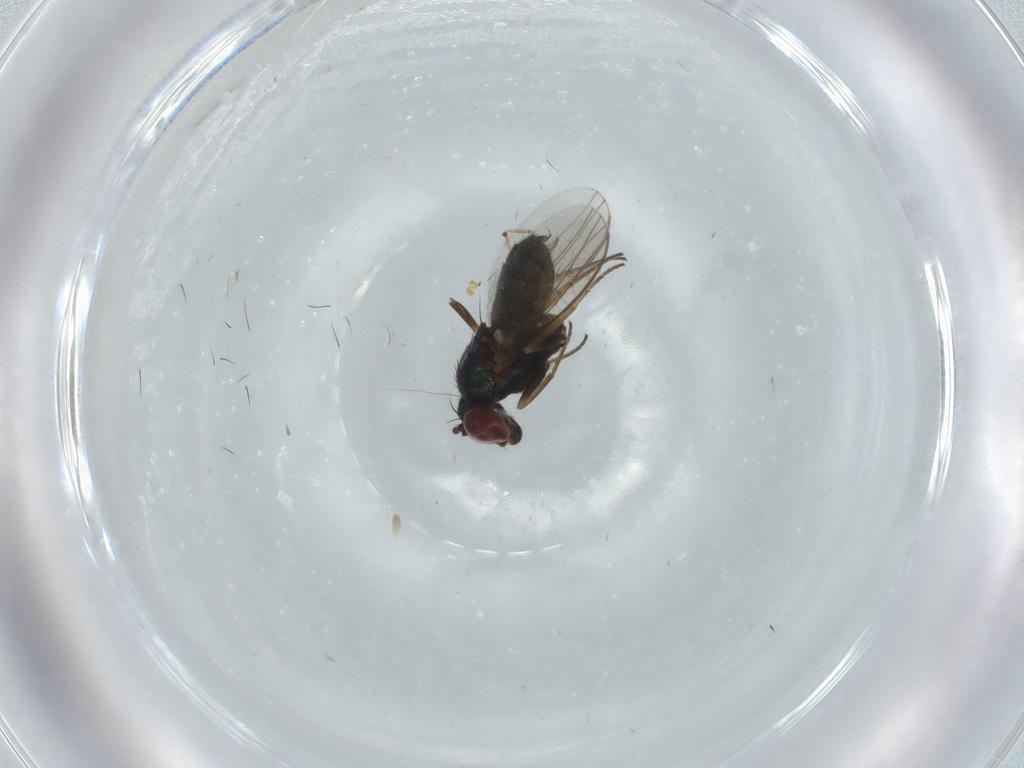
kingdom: Animalia
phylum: Arthropoda
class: Insecta
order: Diptera
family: Dolichopodidae
